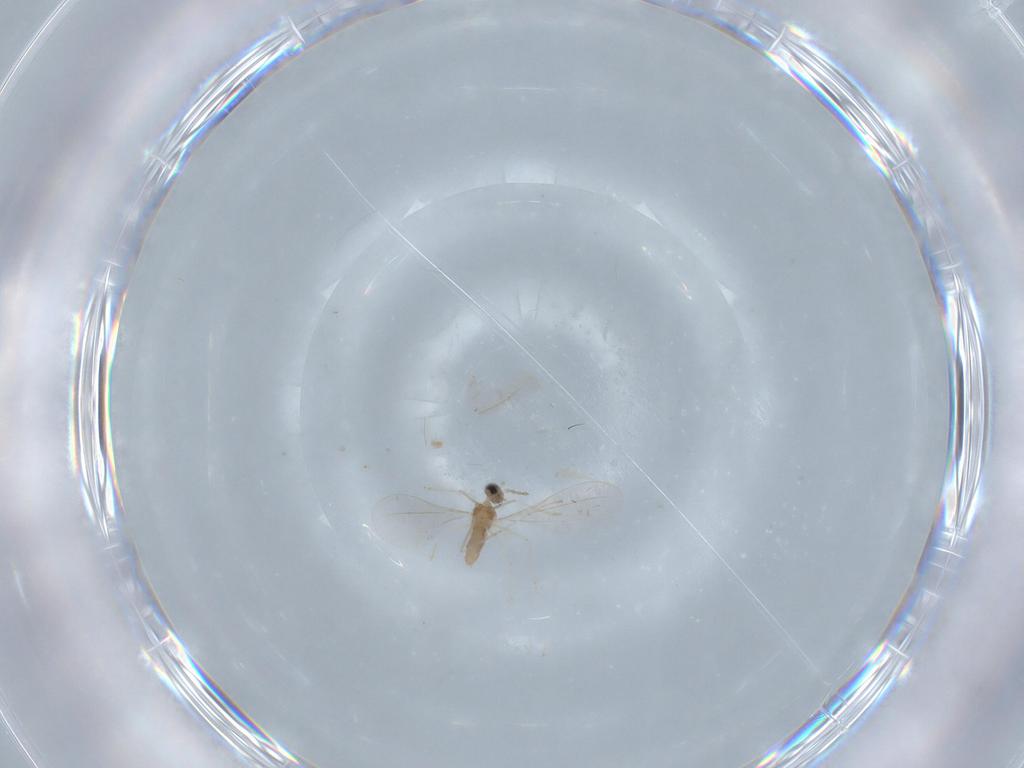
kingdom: Animalia
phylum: Arthropoda
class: Insecta
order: Diptera
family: Cecidomyiidae
